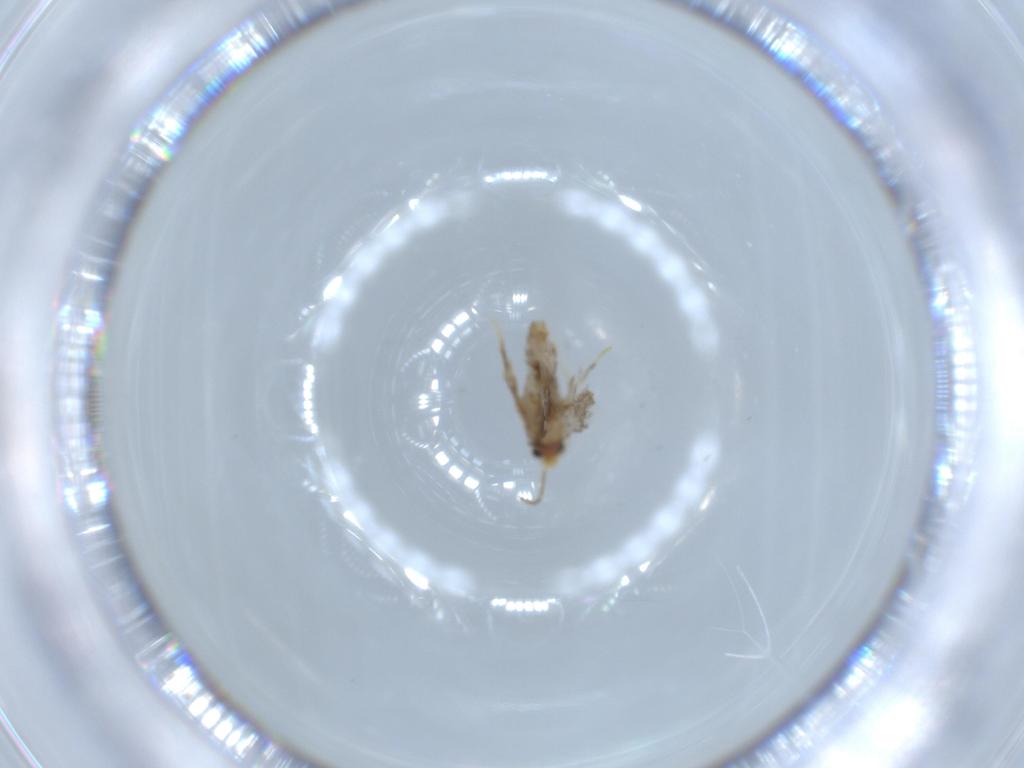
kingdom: Animalia
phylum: Arthropoda
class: Insecta
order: Lepidoptera
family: Nepticulidae
